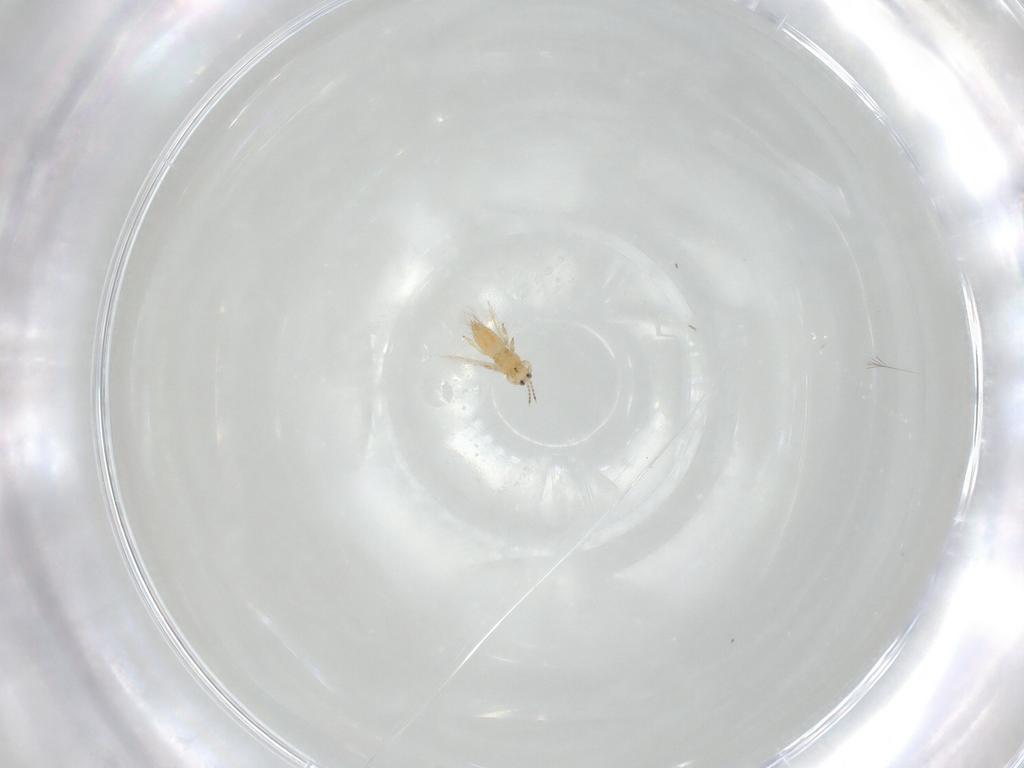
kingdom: Animalia
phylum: Arthropoda
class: Insecta
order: Thysanoptera
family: Thripidae
